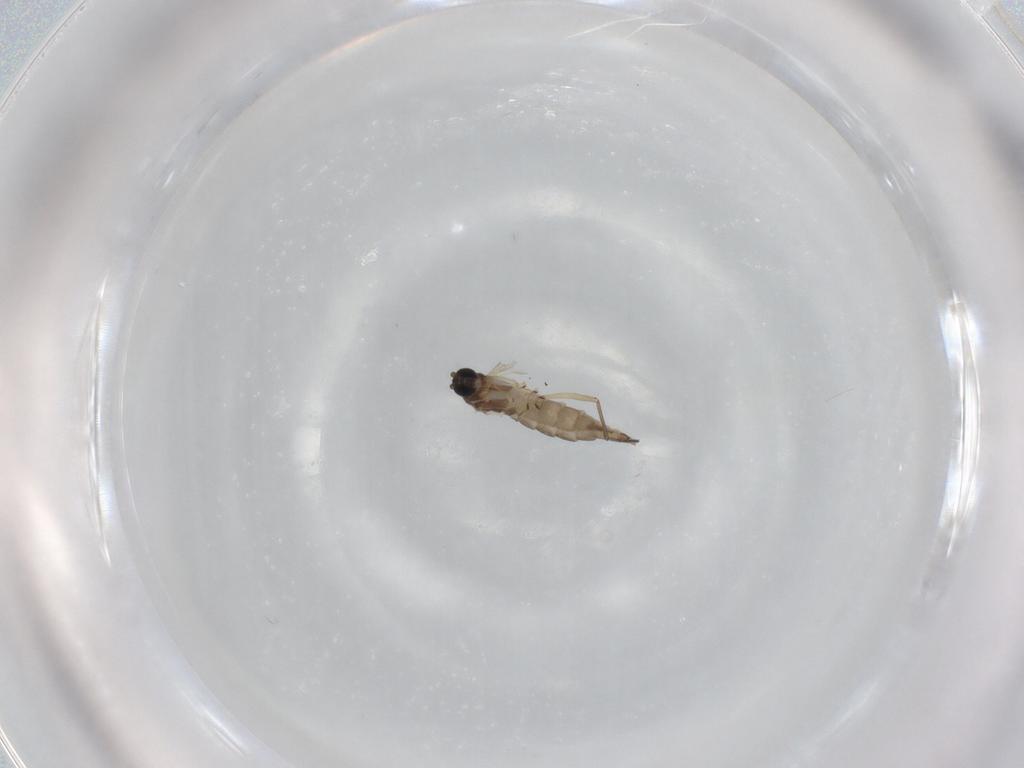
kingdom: Animalia
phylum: Arthropoda
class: Insecta
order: Diptera
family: Sciaridae
